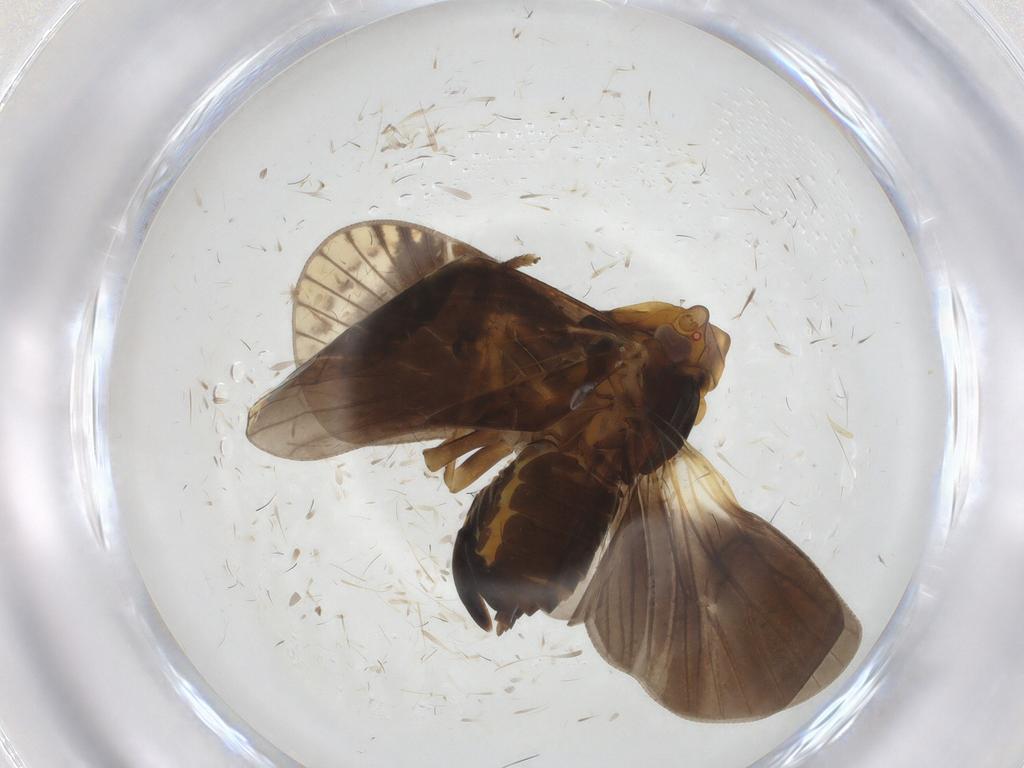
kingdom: Animalia
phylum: Arthropoda
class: Insecta
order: Hemiptera
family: Cixiidae
